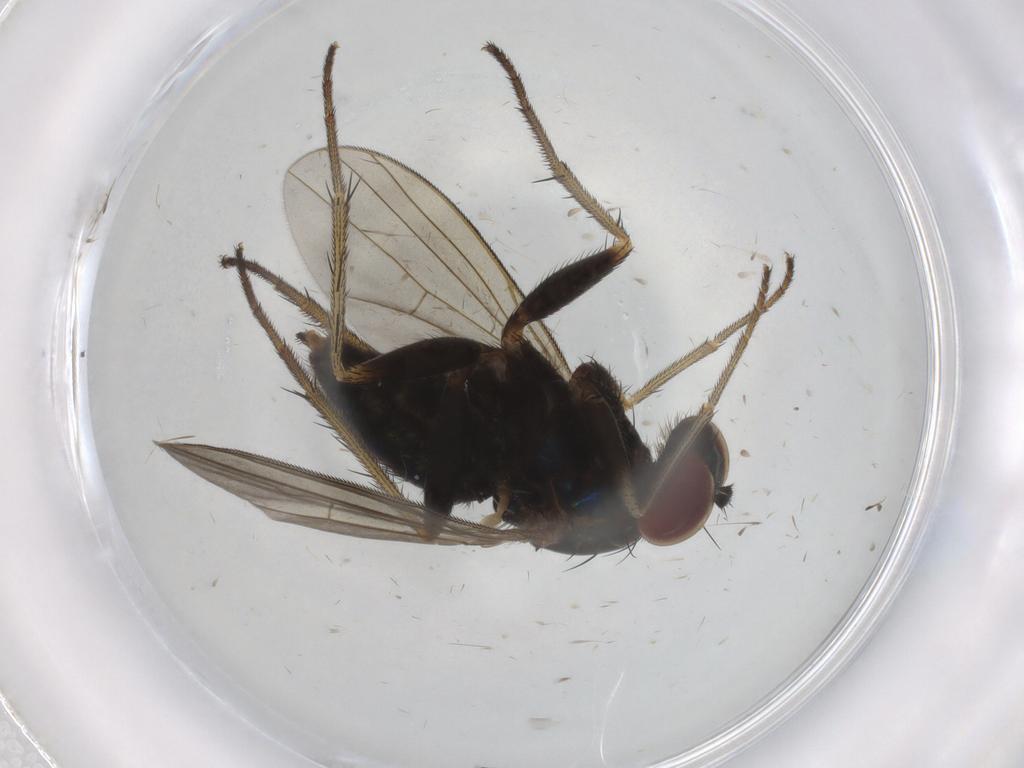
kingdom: Animalia
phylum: Arthropoda
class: Insecta
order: Diptera
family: Dolichopodidae
